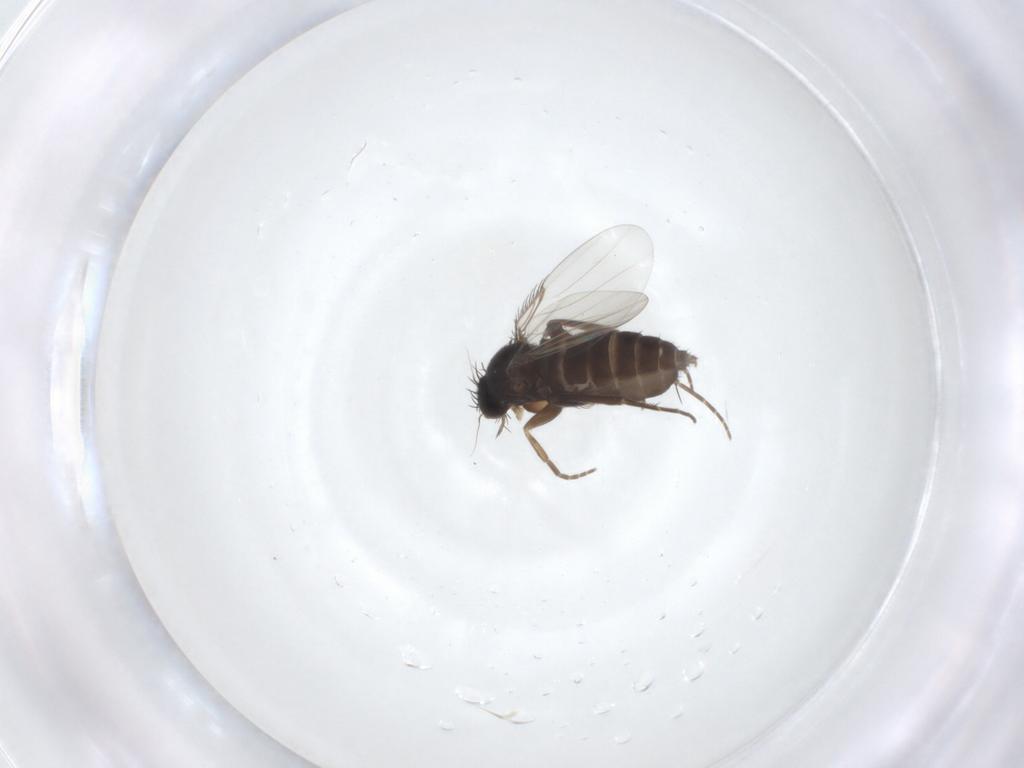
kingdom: Animalia
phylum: Arthropoda
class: Insecta
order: Diptera
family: Phoridae
